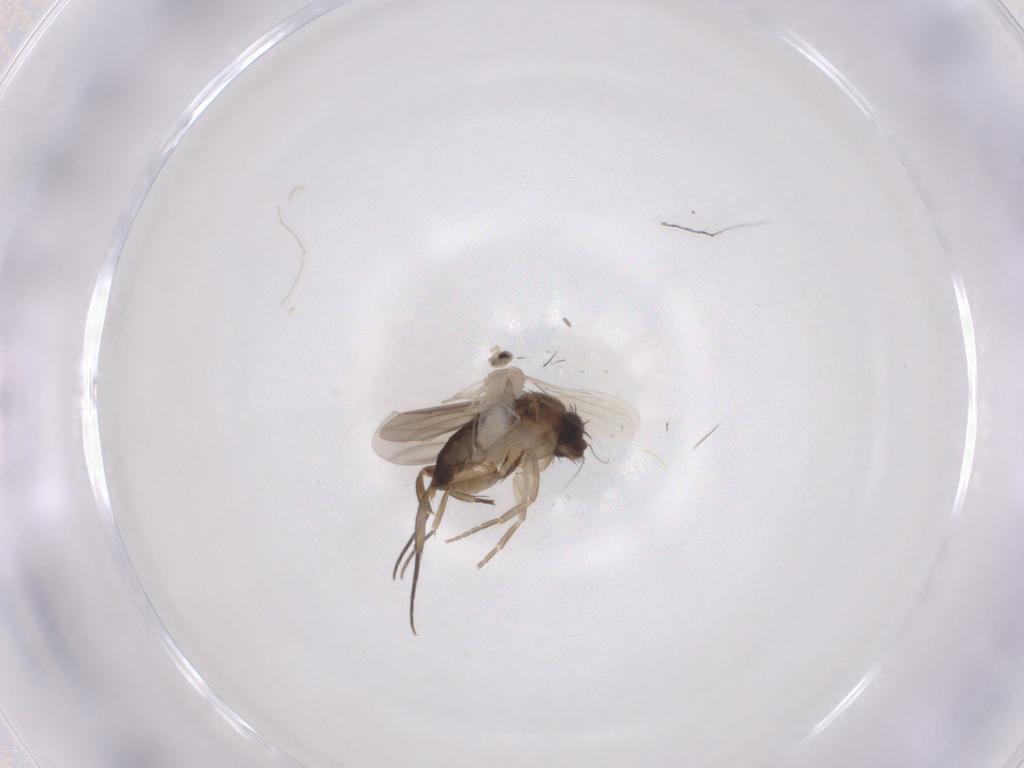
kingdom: Animalia
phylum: Arthropoda
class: Insecta
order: Diptera
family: Phoridae
